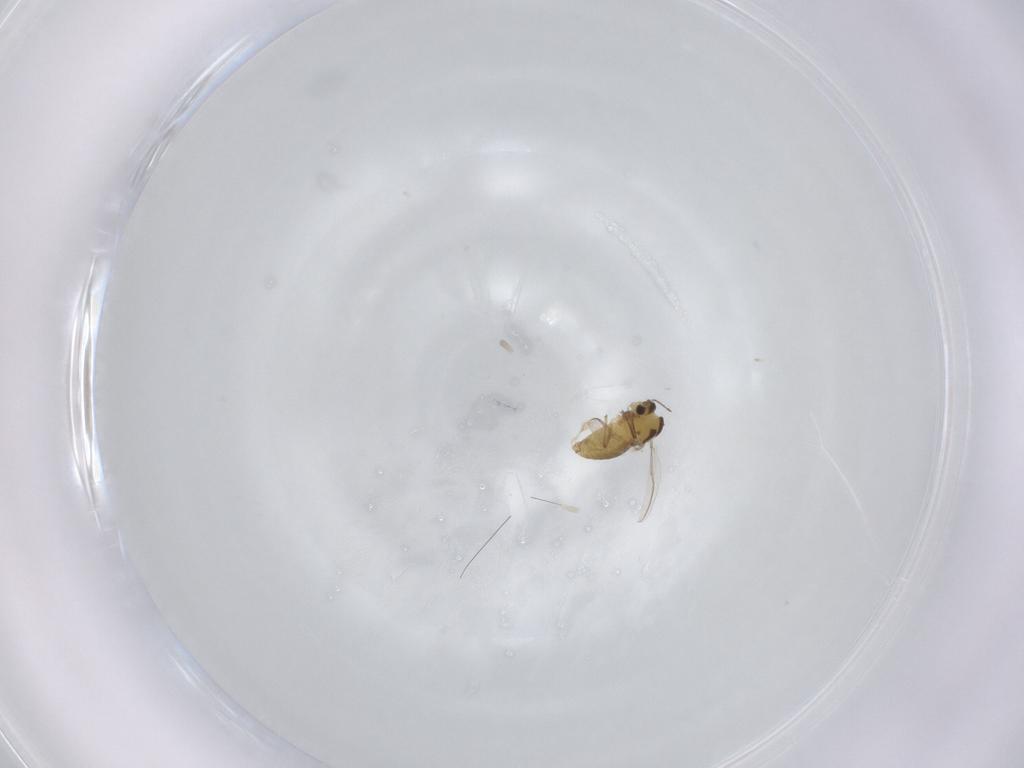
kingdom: Animalia
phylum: Arthropoda
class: Insecta
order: Diptera
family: Chironomidae
